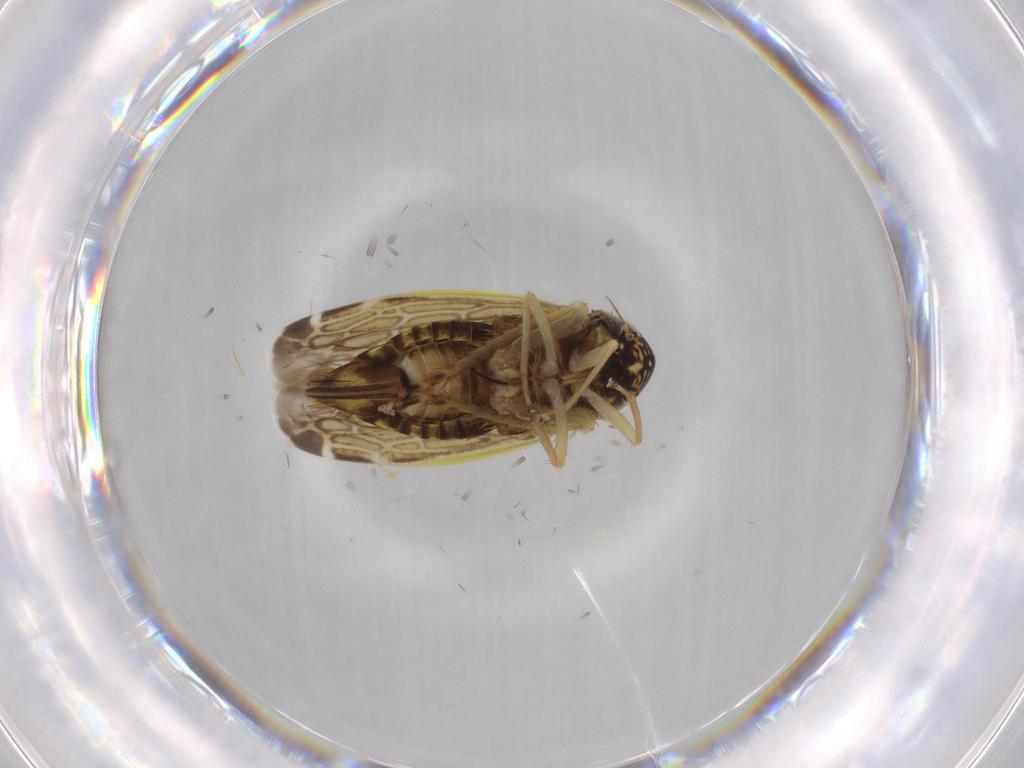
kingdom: Animalia
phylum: Arthropoda
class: Insecta
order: Hemiptera
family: Cicadellidae
